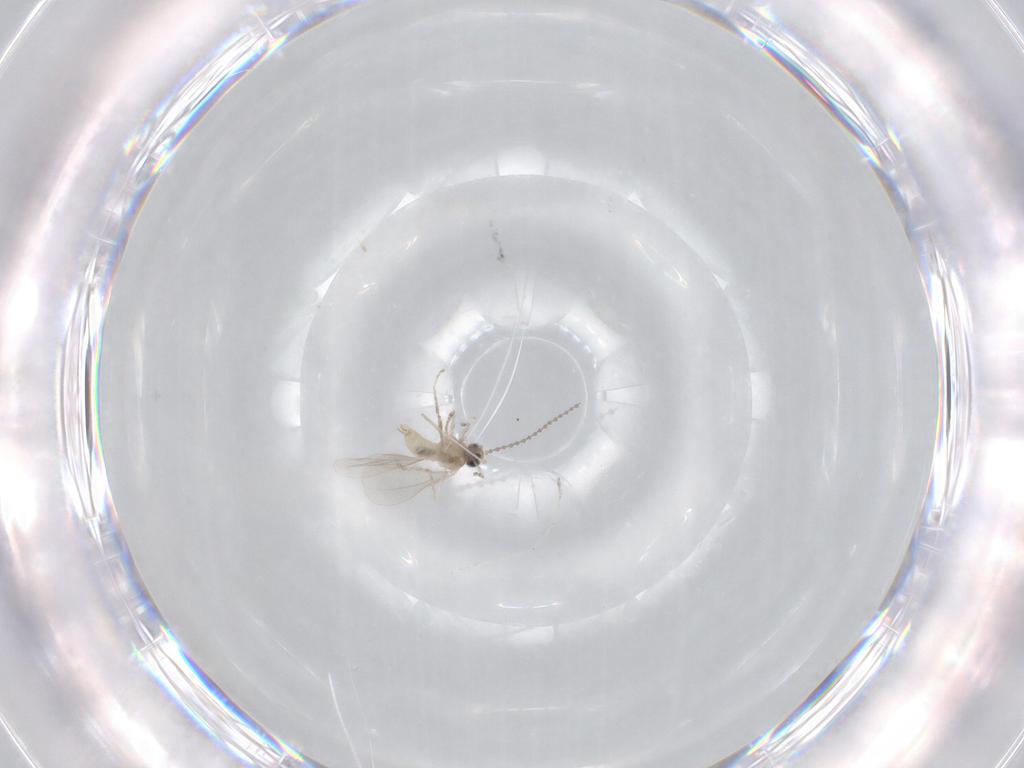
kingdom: Animalia
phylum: Arthropoda
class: Insecta
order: Diptera
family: Cecidomyiidae
